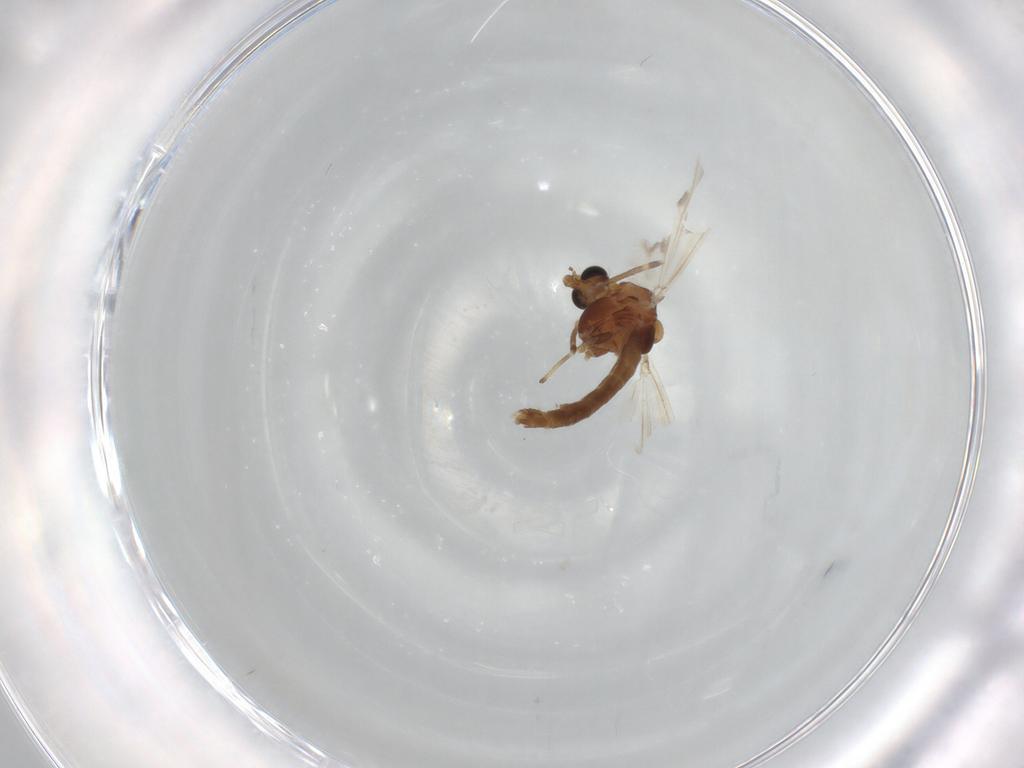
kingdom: Animalia
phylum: Arthropoda
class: Insecta
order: Diptera
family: Chironomidae
